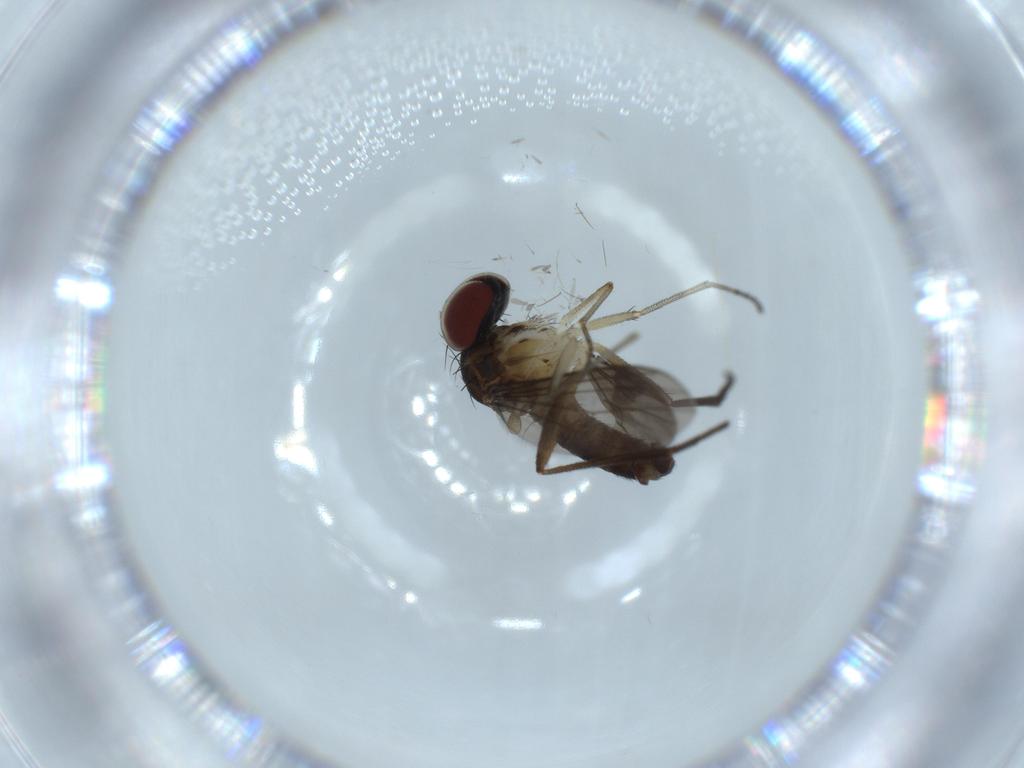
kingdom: Animalia
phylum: Arthropoda
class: Insecta
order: Diptera
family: Dolichopodidae
